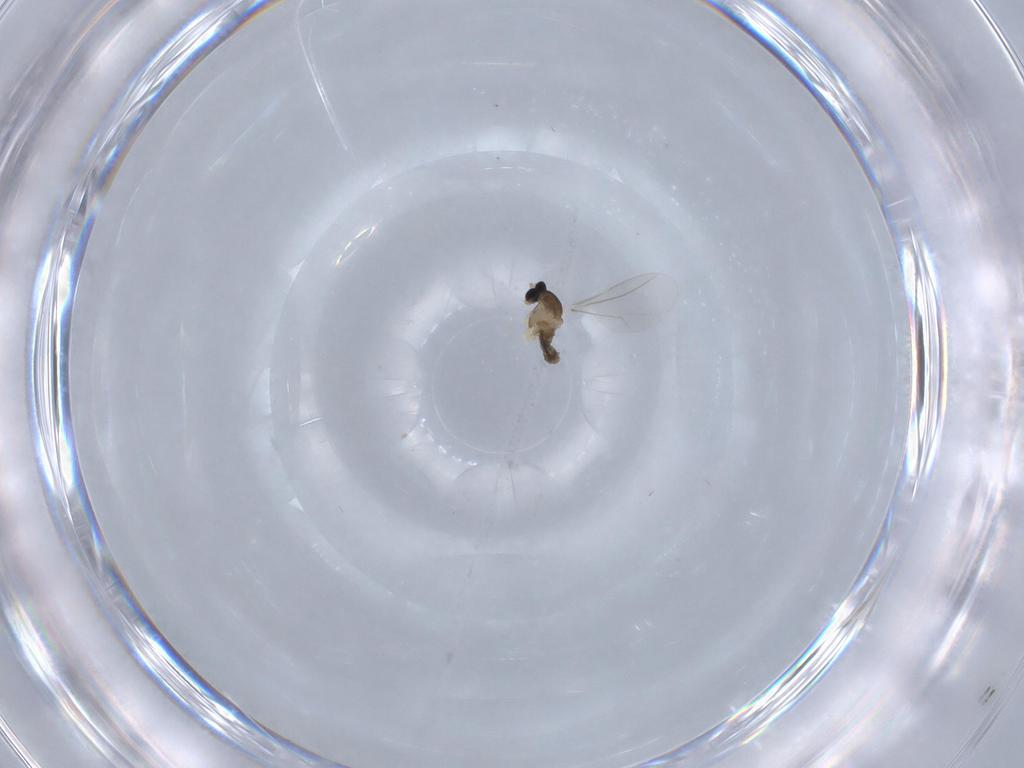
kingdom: Animalia
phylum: Arthropoda
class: Insecta
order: Diptera
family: Cecidomyiidae
